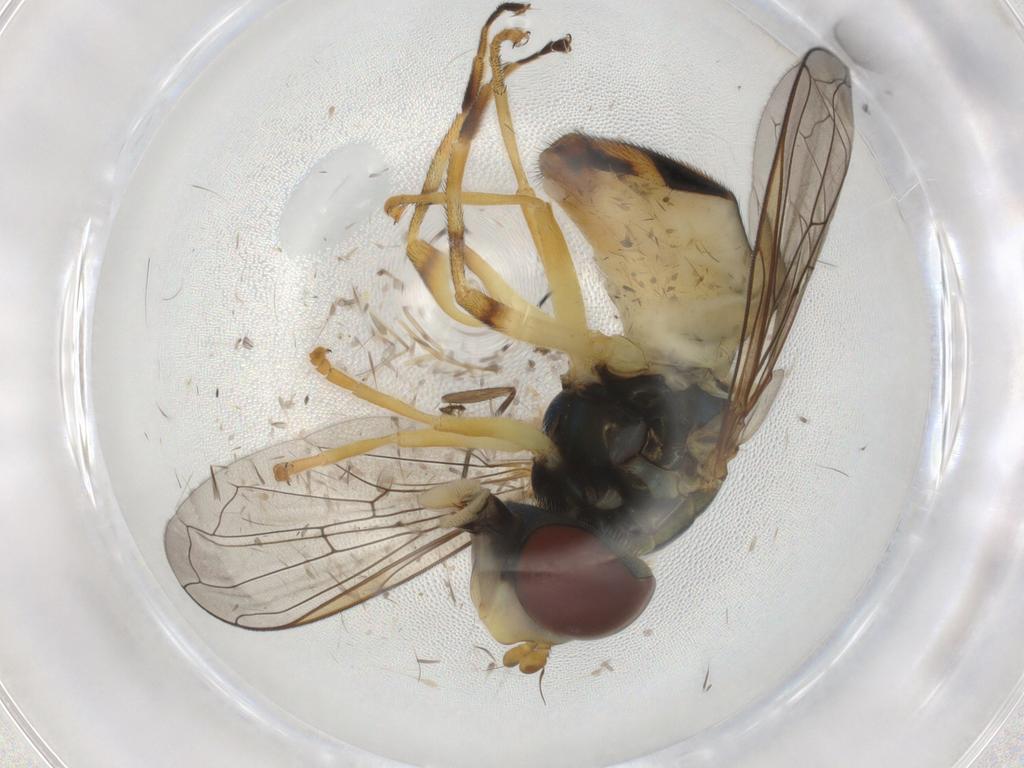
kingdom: Animalia
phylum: Arthropoda
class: Insecta
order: Diptera
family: Syrphidae
